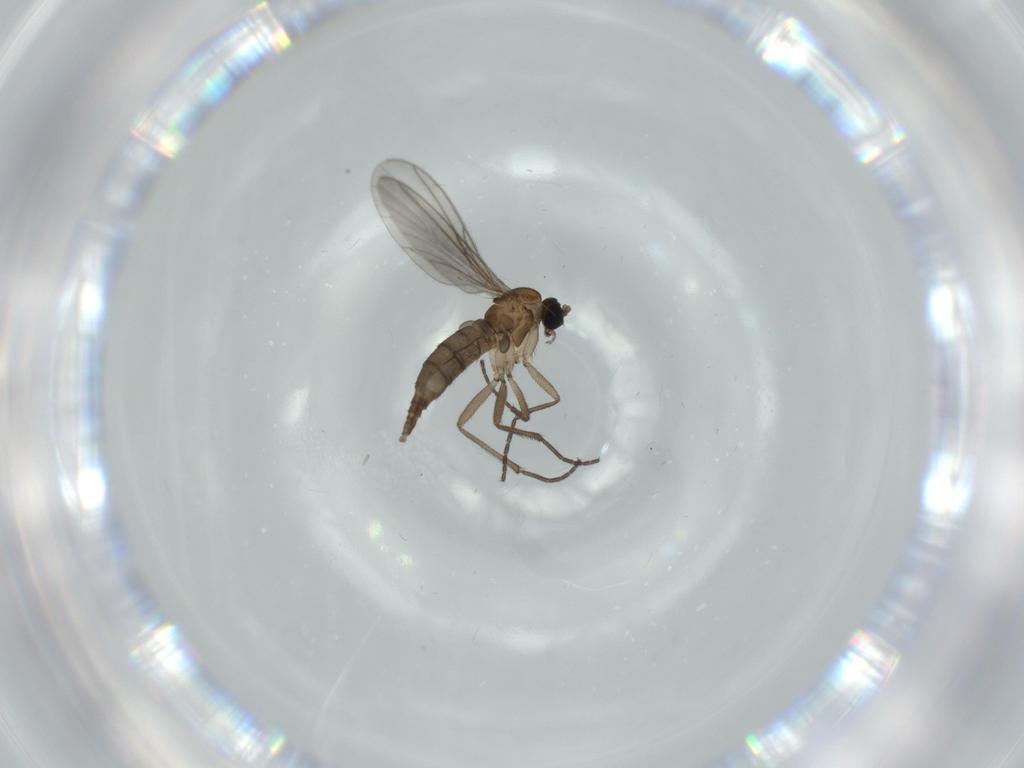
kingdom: Animalia
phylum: Arthropoda
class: Insecta
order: Diptera
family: Sciaridae
